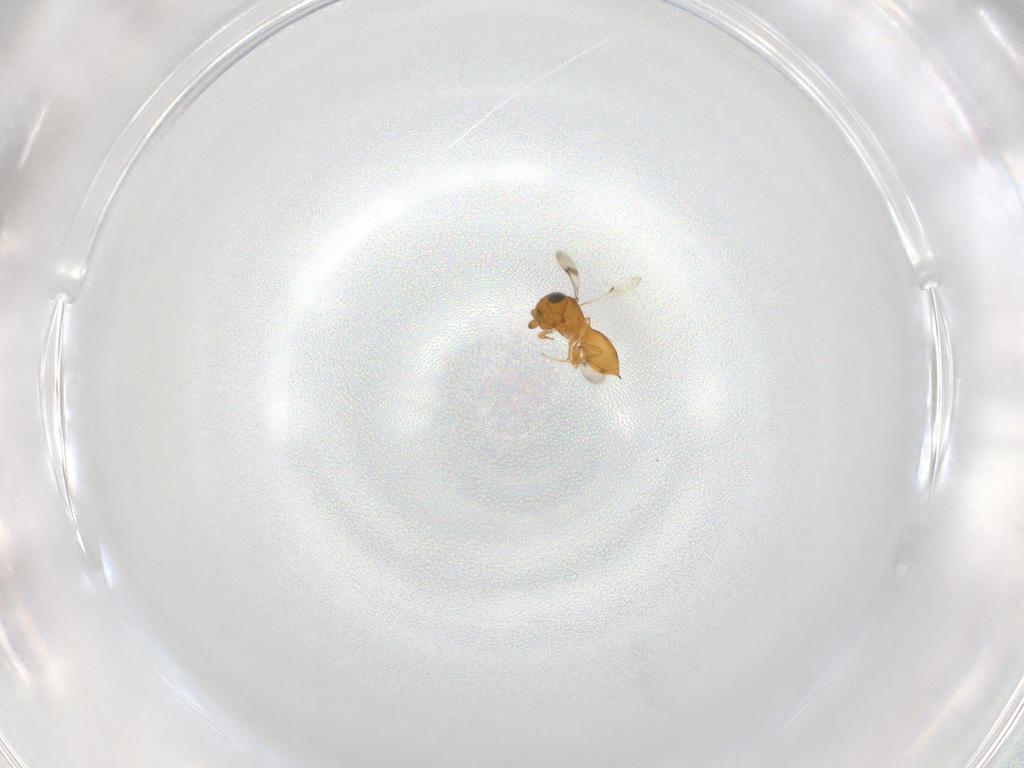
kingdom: Animalia
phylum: Arthropoda
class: Insecta
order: Hymenoptera
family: Scelionidae
